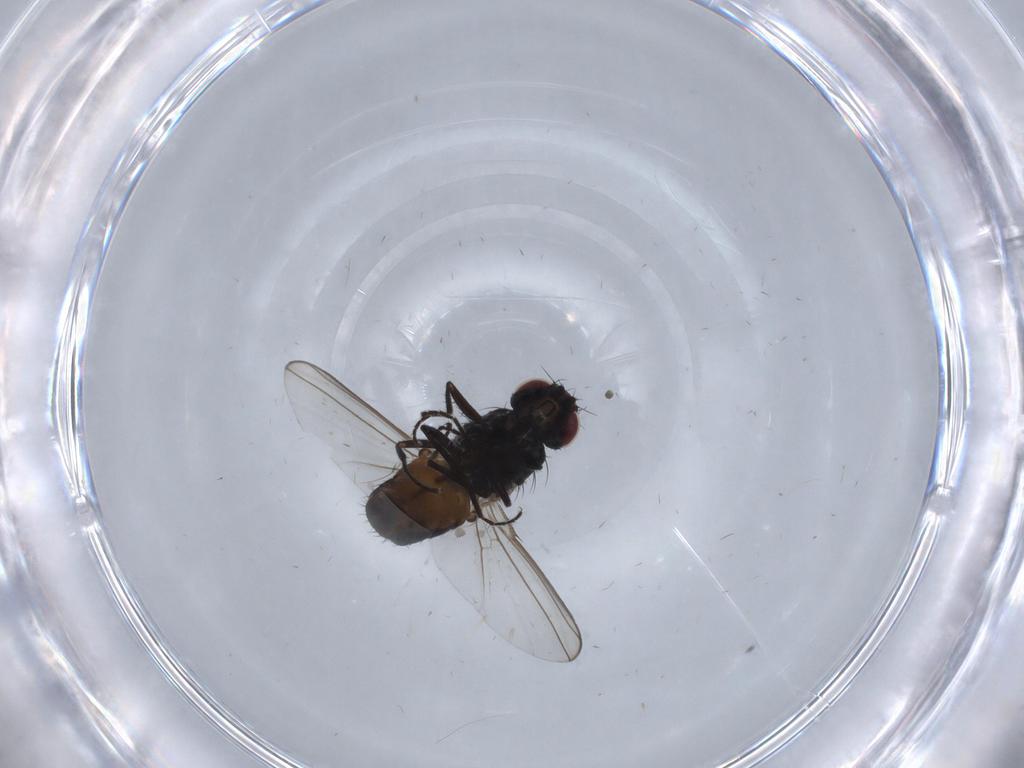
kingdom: Animalia
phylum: Arthropoda
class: Insecta
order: Diptera
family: Carnidae
